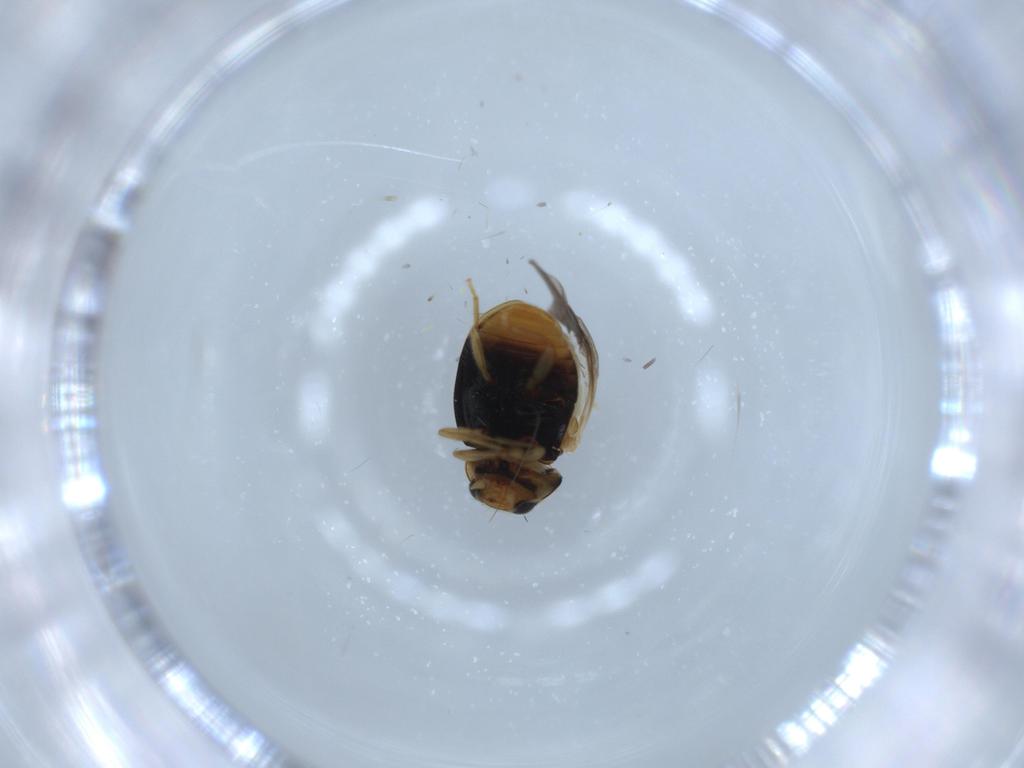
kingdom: Animalia
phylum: Arthropoda
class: Insecta
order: Coleoptera
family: Coccinellidae
